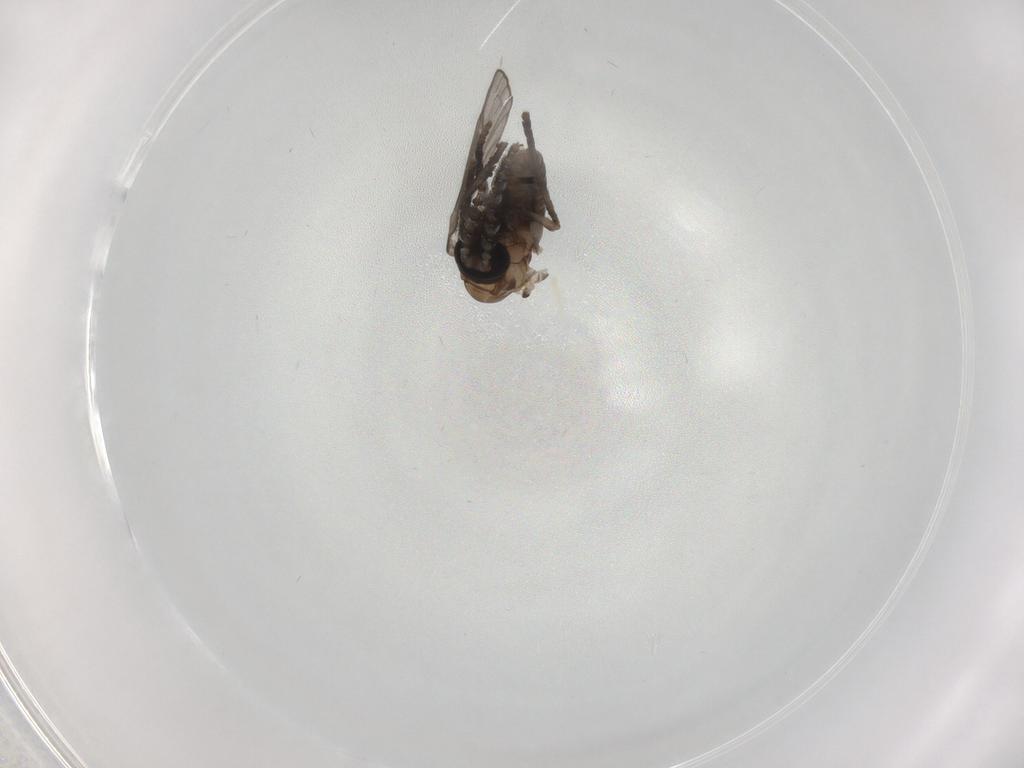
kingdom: Animalia
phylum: Arthropoda
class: Insecta
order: Diptera
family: Psychodidae
